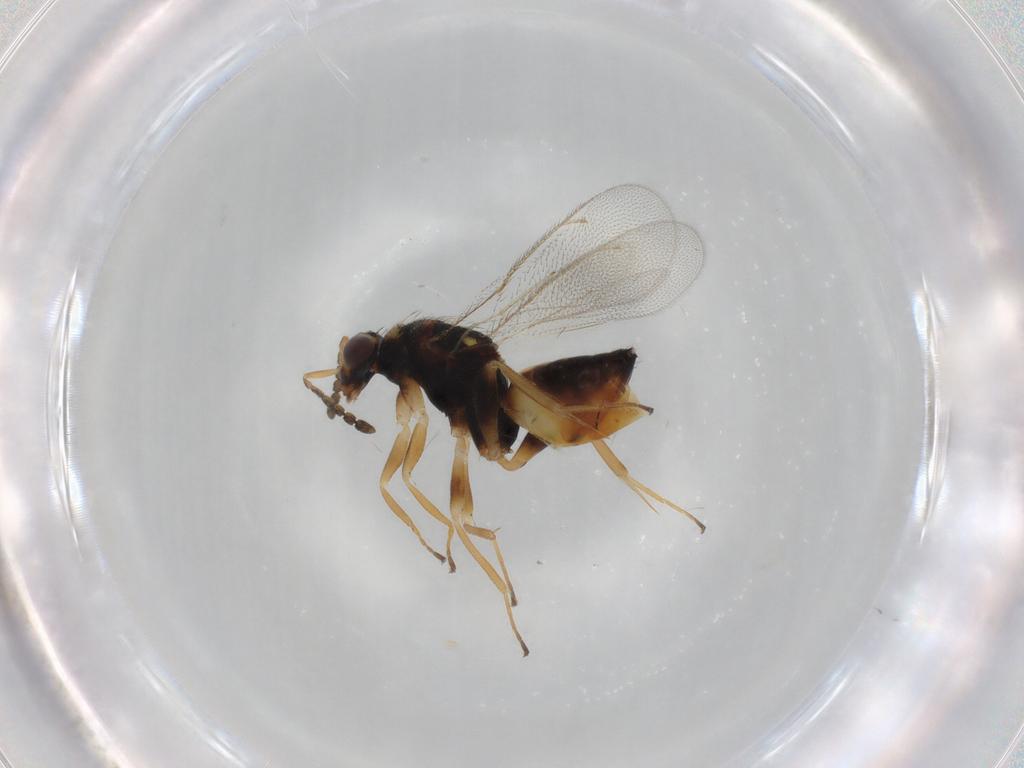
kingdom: Animalia
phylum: Arthropoda
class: Insecta
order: Hymenoptera
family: Eulophidae
